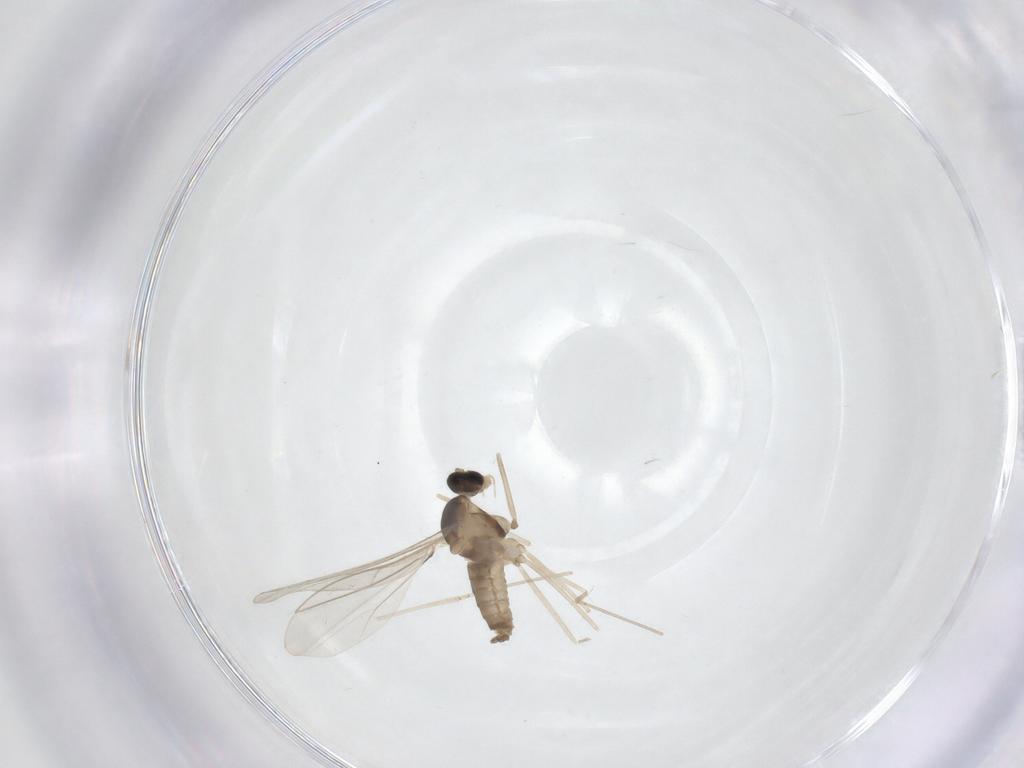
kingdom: Animalia
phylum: Arthropoda
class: Insecta
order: Diptera
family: Cecidomyiidae
